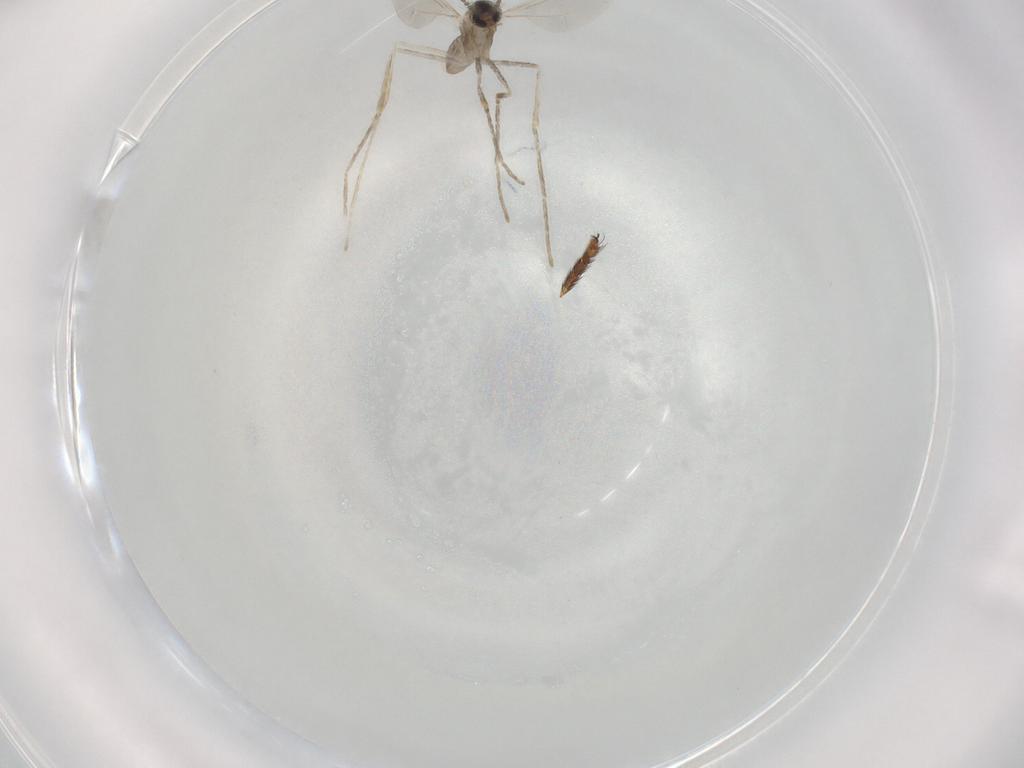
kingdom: Animalia
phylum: Arthropoda
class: Insecta
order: Diptera
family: Cecidomyiidae
